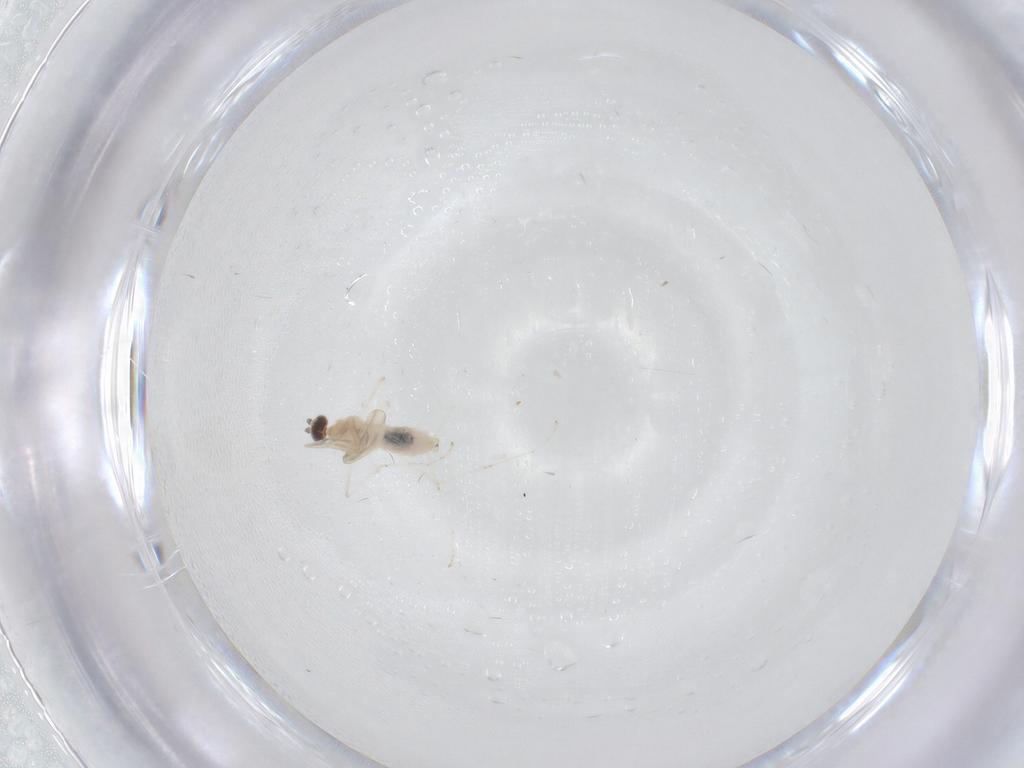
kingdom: Animalia
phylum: Arthropoda
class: Insecta
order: Diptera
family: Cecidomyiidae
